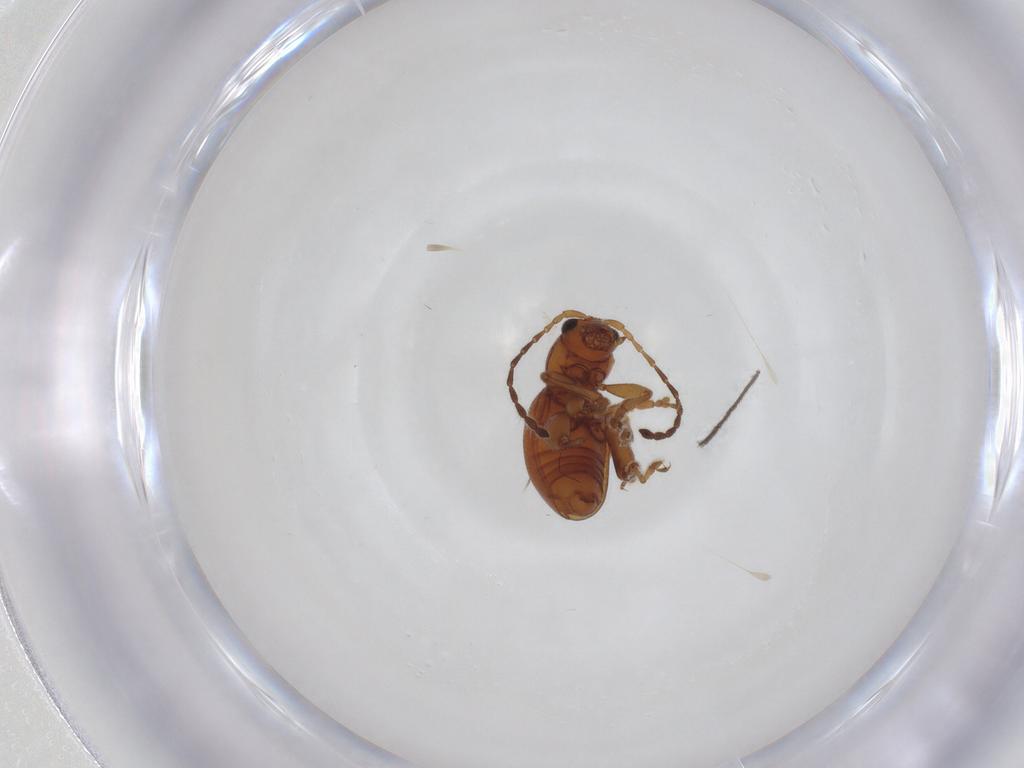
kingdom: Animalia
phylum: Arthropoda
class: Insecta
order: Coleoptera
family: Chrysomelidae
